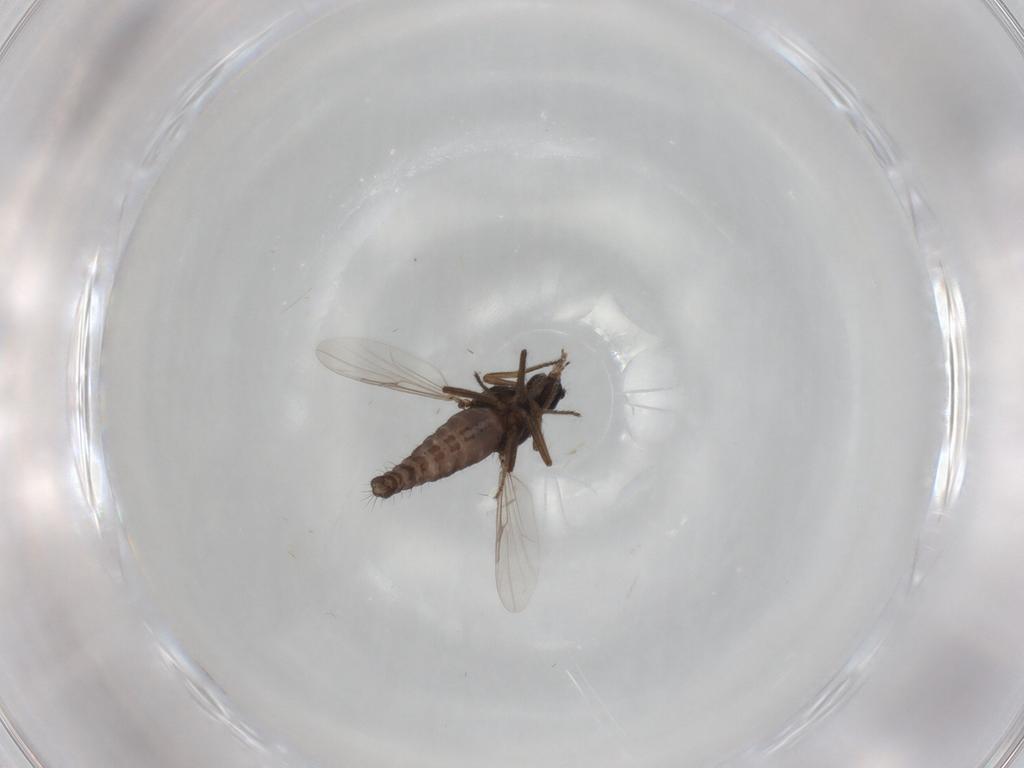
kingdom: Animalia
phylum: Arthropoda
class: Insecta
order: Diptera
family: Ceratopogonidae
